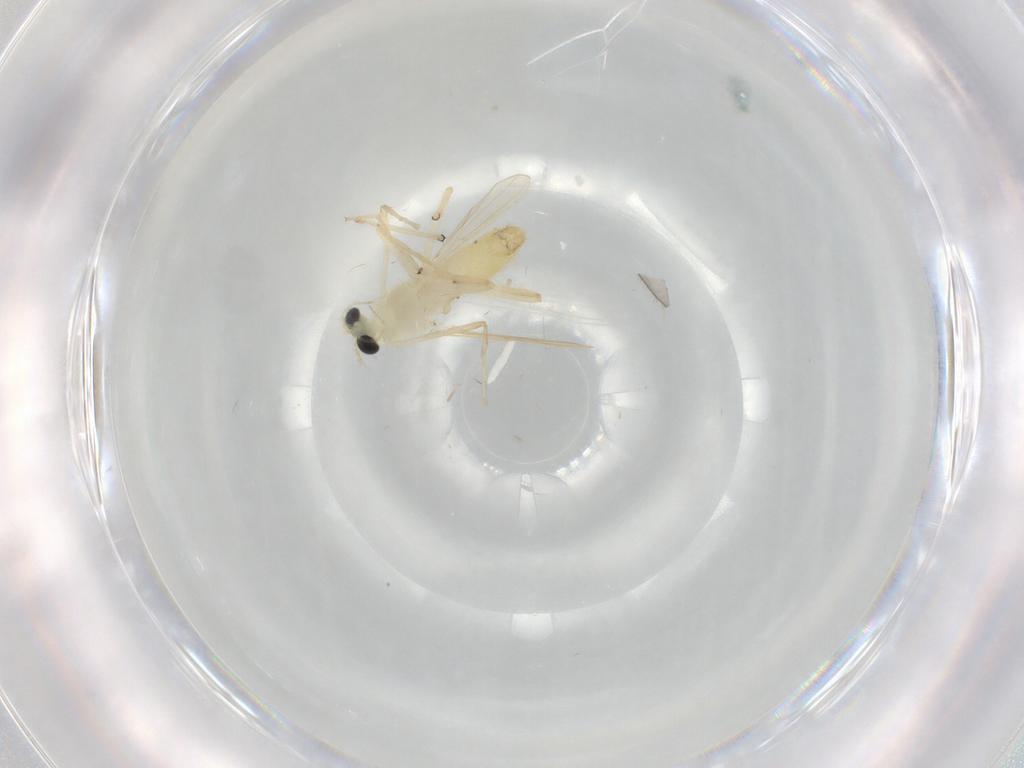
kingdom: Animalia
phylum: Arthropoda
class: Insecta
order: Diptera
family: Chironomidae
